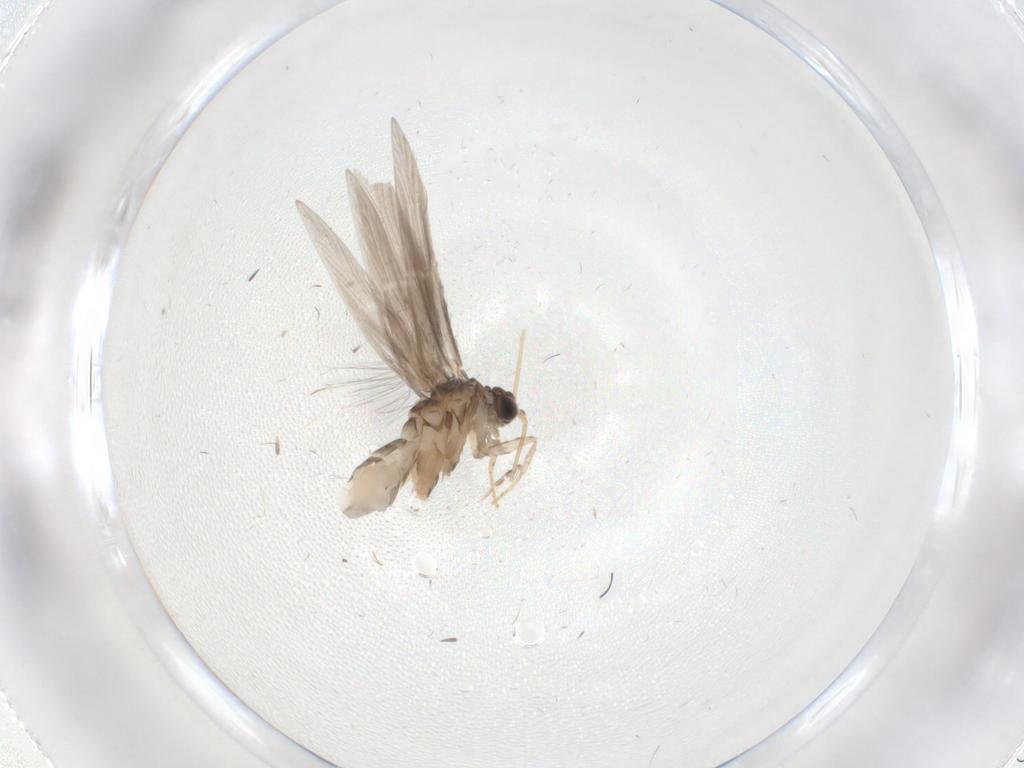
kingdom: Animalia
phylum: Arthropoda
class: Insecta
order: Trichoptera
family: Hydroptilidae
